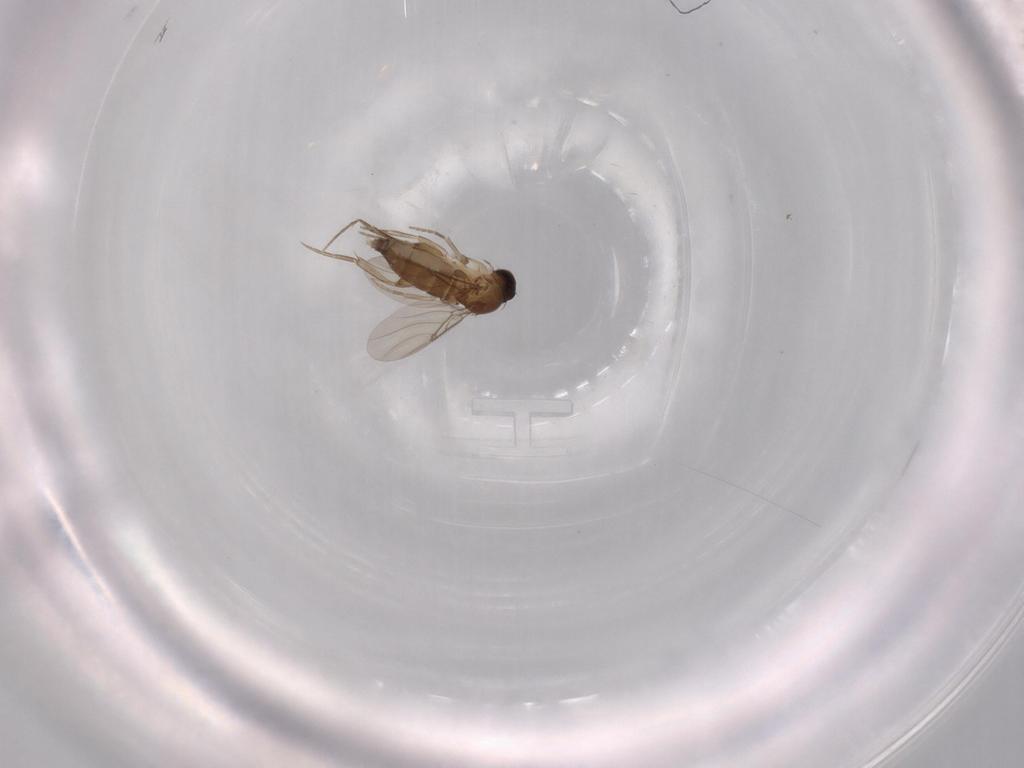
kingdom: Animalia
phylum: Arthropoda
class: Insecta
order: Diptera
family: Phoridae
